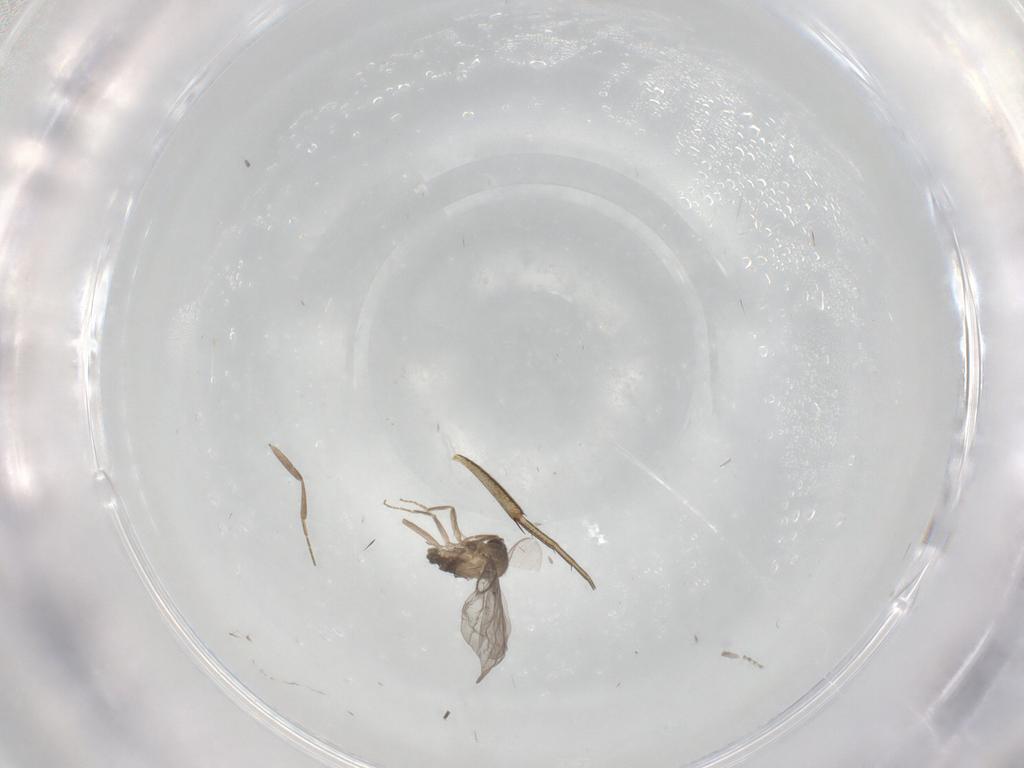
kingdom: Animalia
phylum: Arthropoda
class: Insecta
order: Diptera
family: Phoridae
